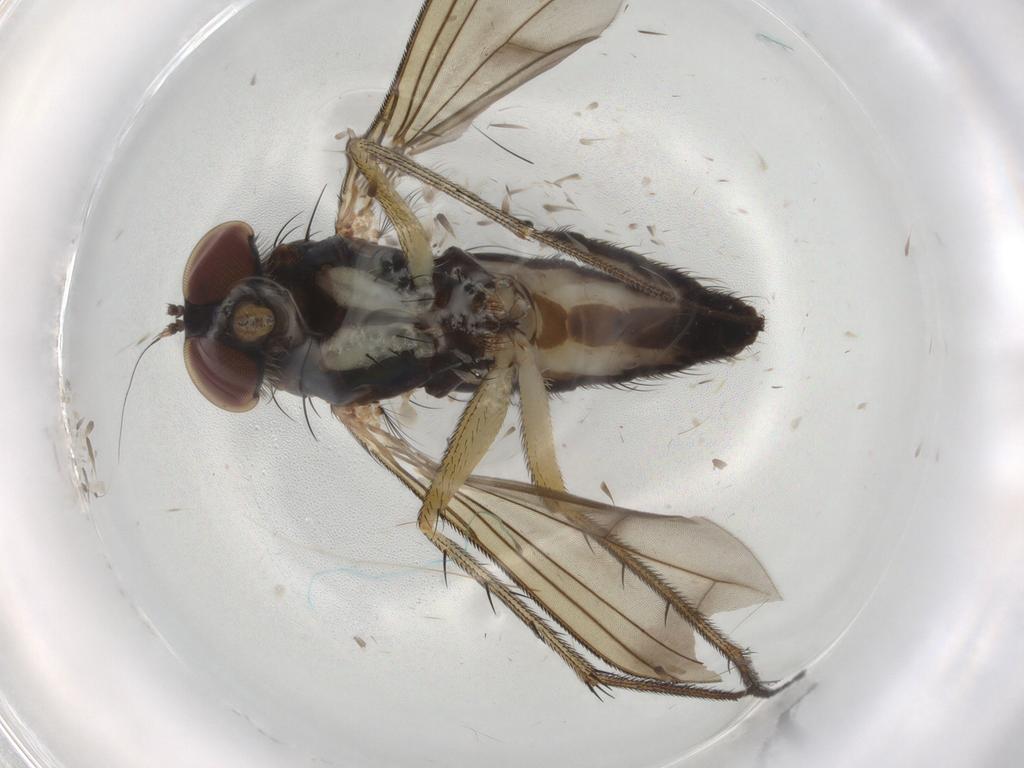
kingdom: Animalia
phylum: Arthropoda
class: Insecta
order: Diptera
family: Dolichopodidae
